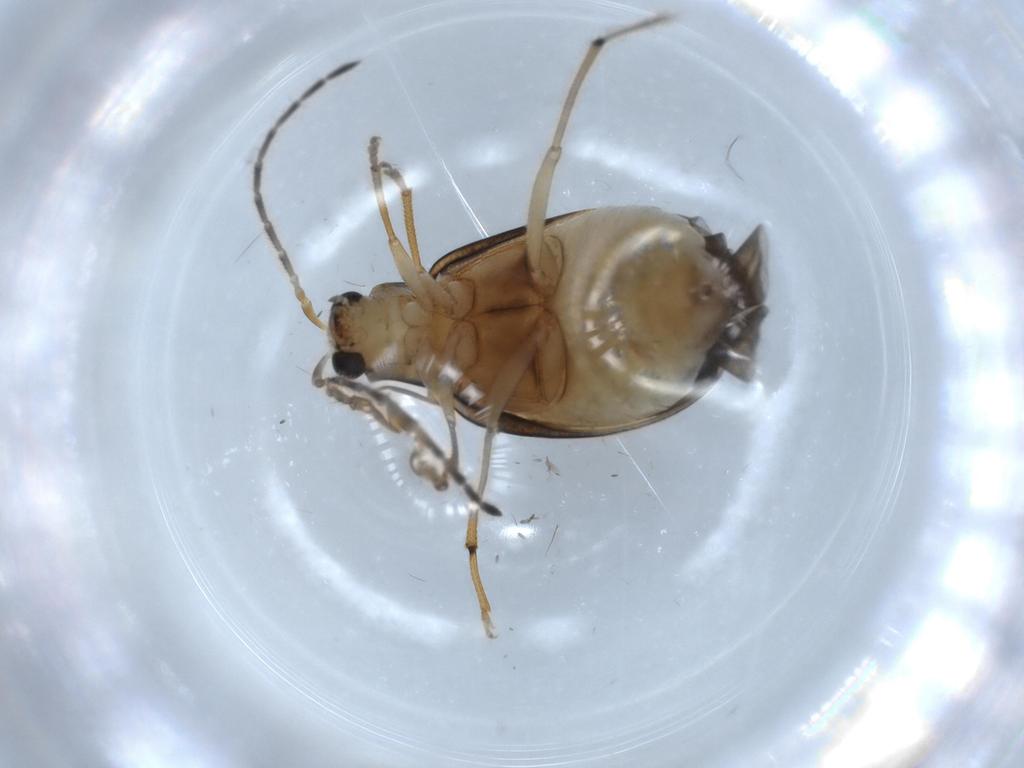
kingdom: Animalia
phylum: Arthropoda
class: Insecta
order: Coleoptera
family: Chrysomelidae
